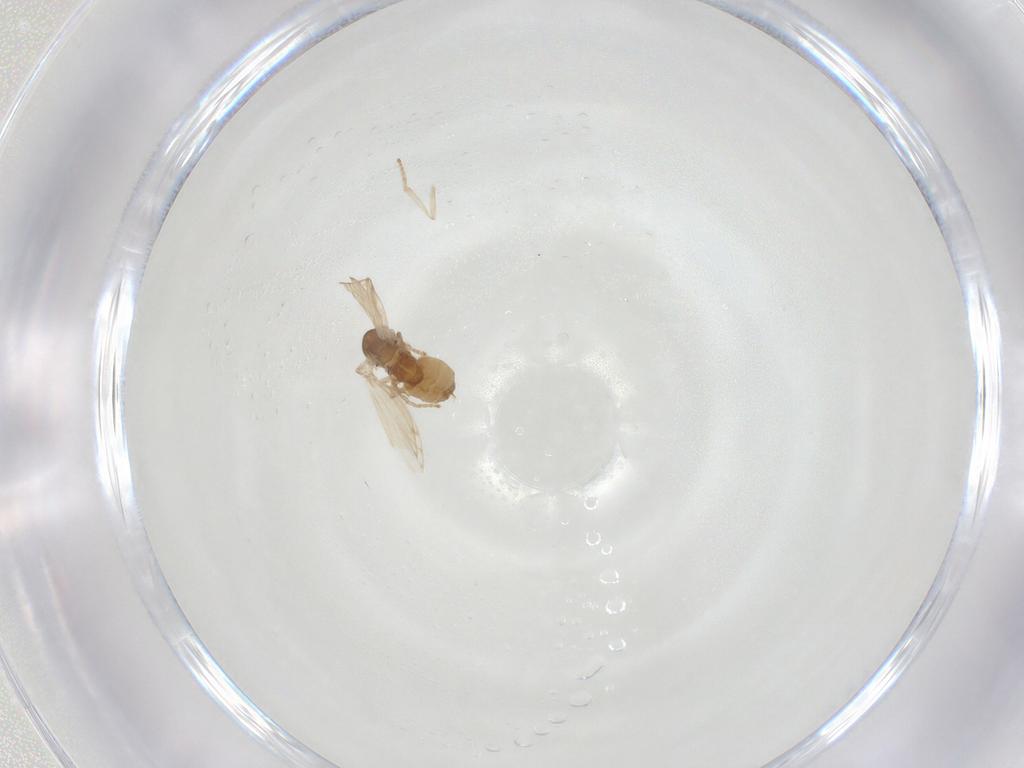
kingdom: Animalia
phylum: Arthropoda
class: Insecta
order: Diptera
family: Psychodidae
